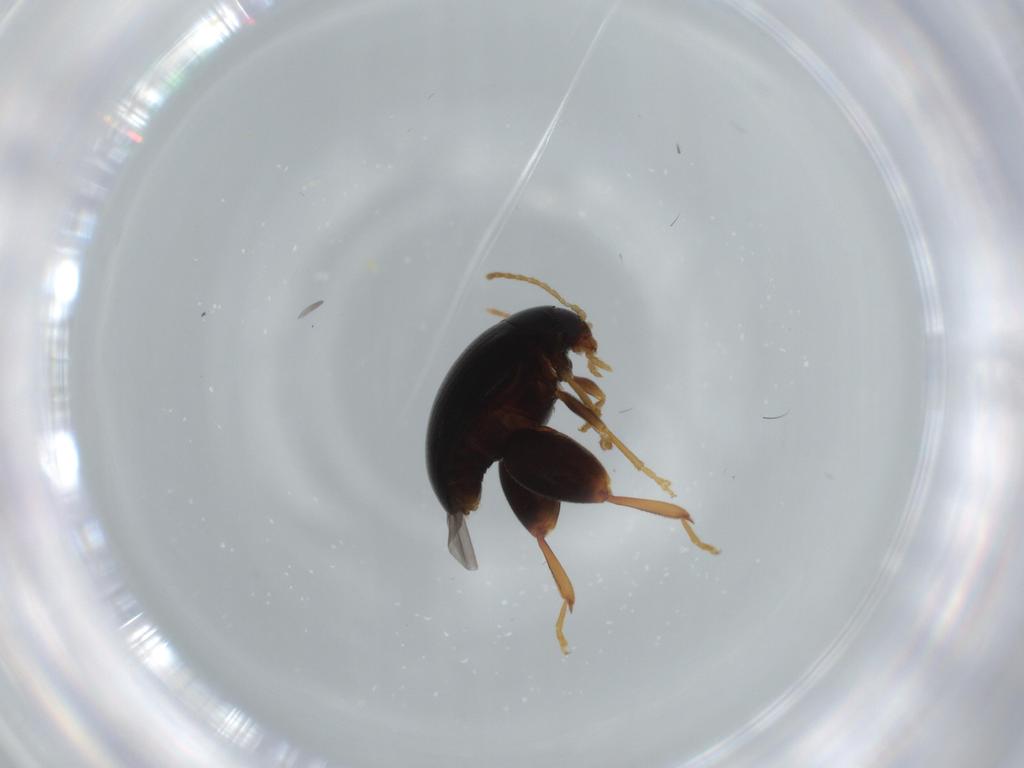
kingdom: Animalia
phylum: Arthropoda
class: Insecta
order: Coleoptera
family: Chrysomelidae
